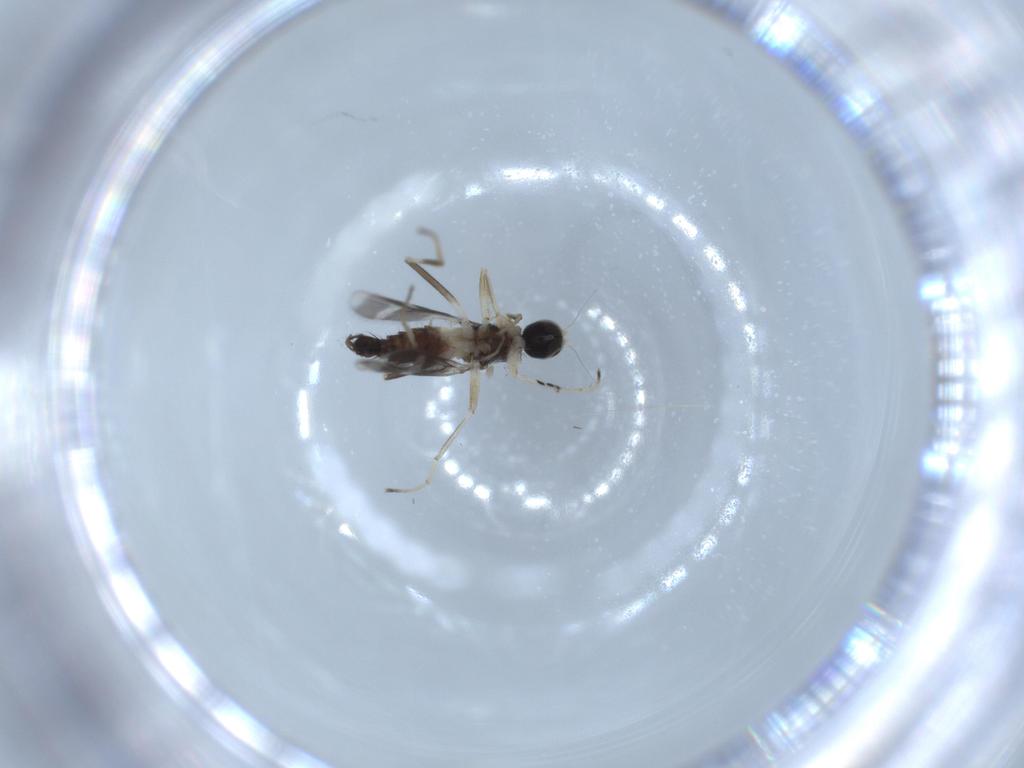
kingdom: Animalia
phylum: Arthropoda
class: Insecta
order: Diptera
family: Hybotidae
